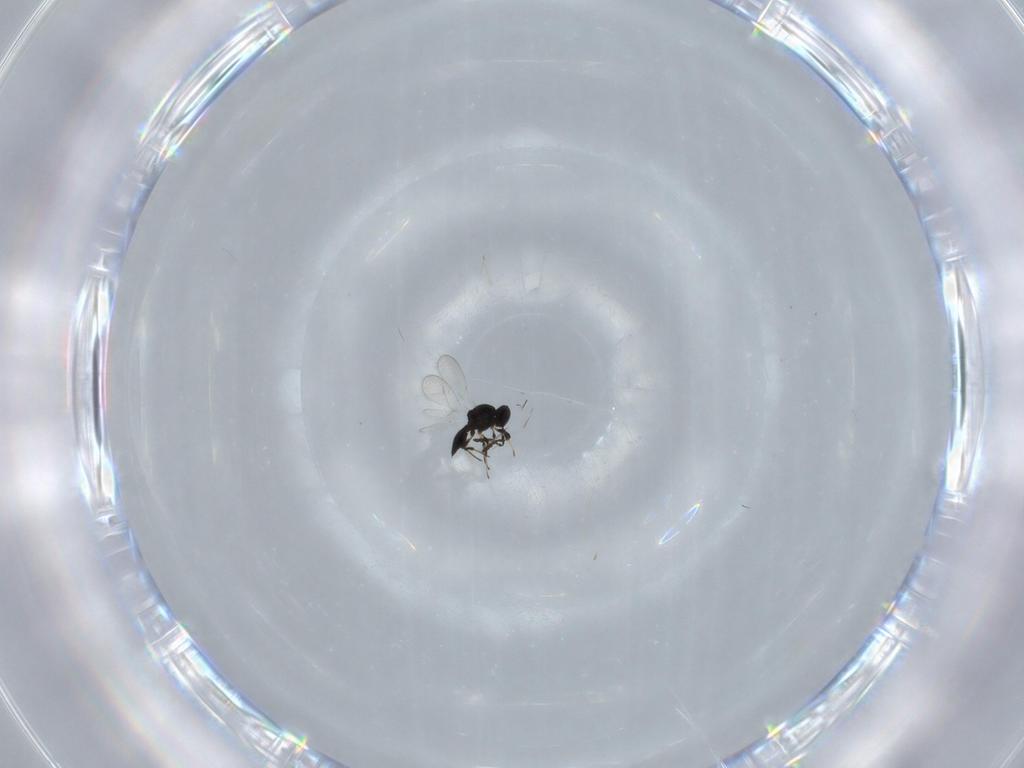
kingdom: Animalia
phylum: Arthropoda
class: Insecta
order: Hymenoptera
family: Platygastridae
